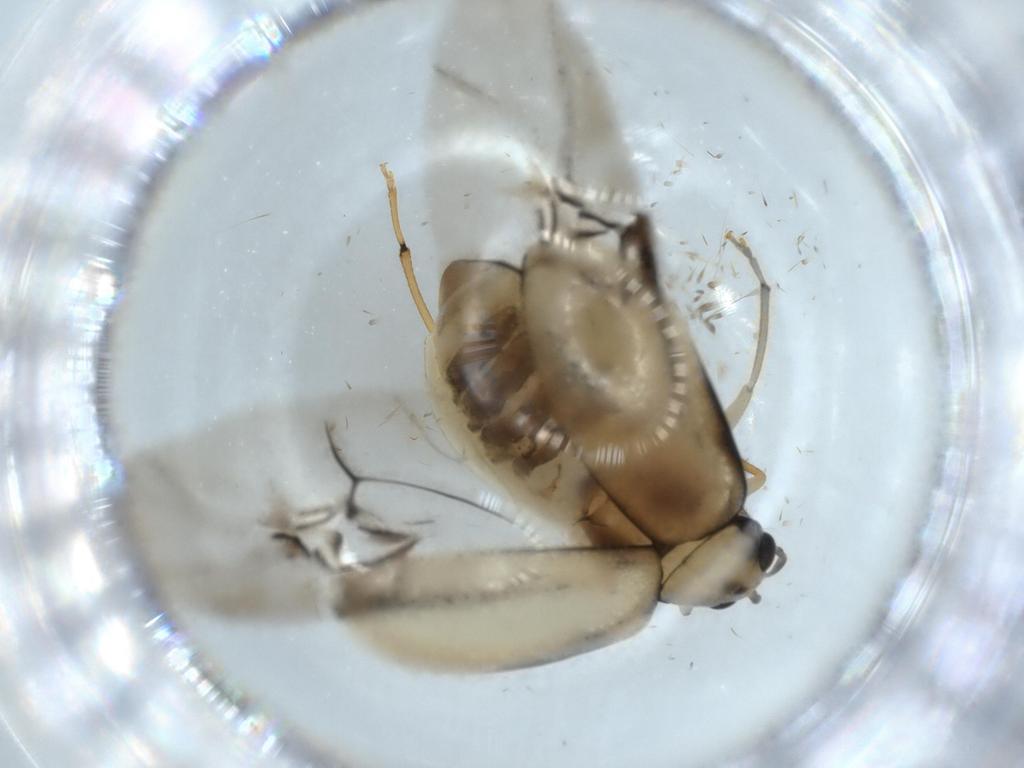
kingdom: Animalia
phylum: Arthropoda
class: Insecta
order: Coleoptera
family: Chrysomelidae
